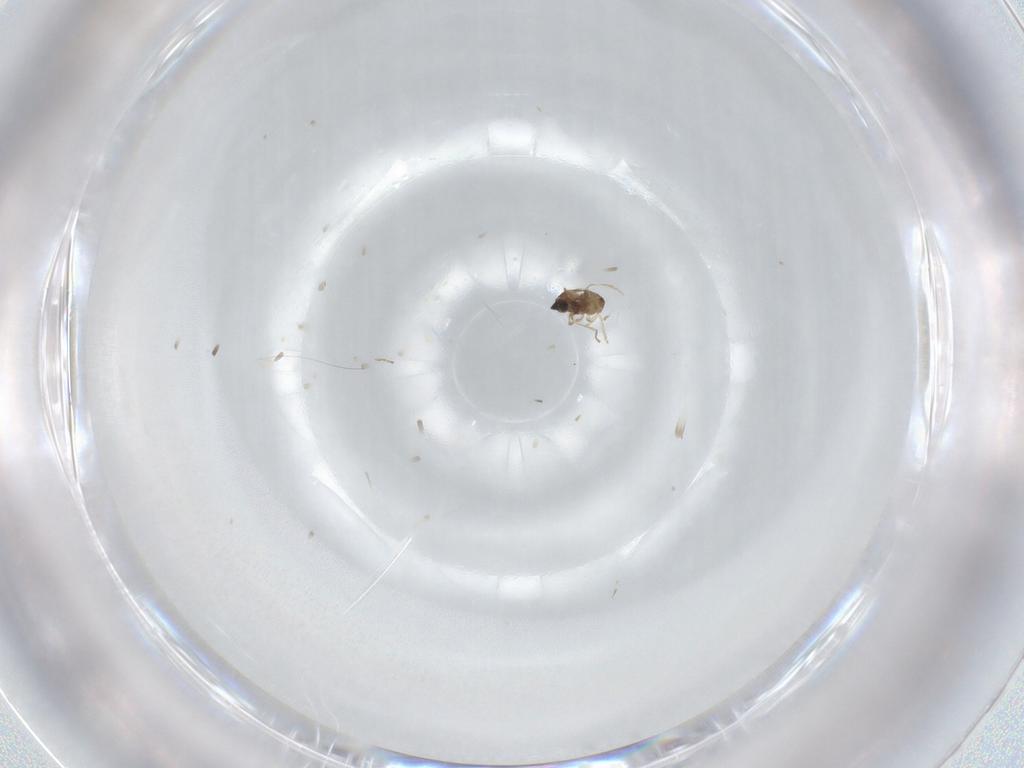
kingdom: Animalia
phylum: Arthropoda
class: Insecta
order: Diptera
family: Cecidomyiidae
